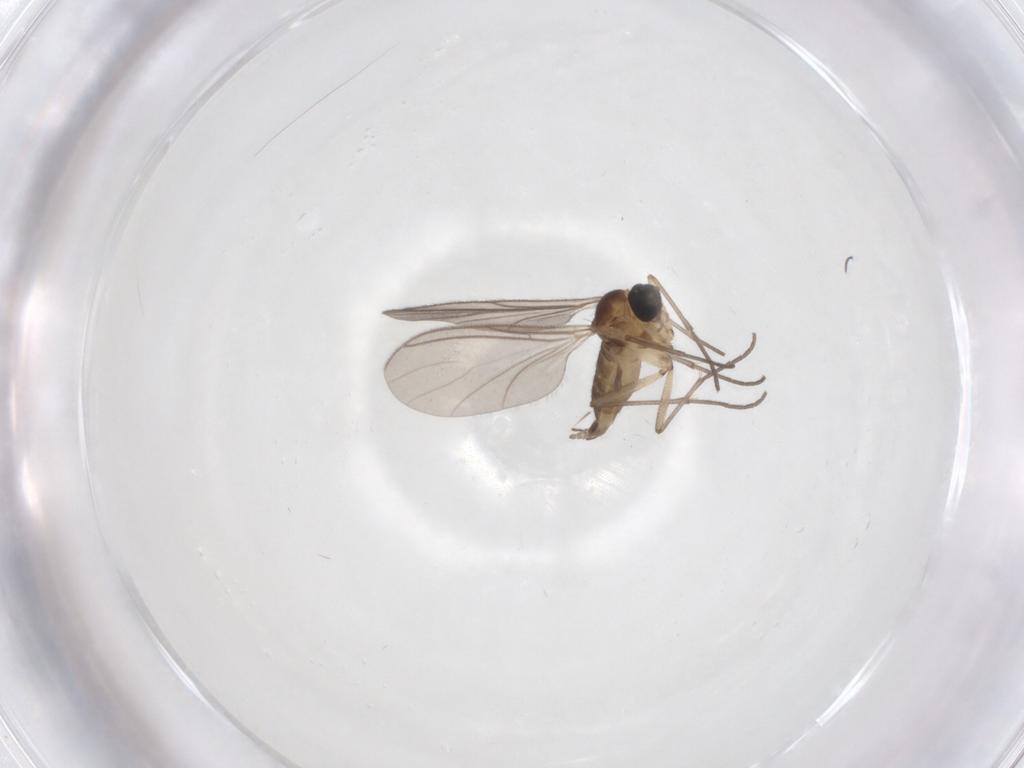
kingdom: Animalia
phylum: Arthropoda
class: Insecta
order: Diptera
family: Sciaridae
